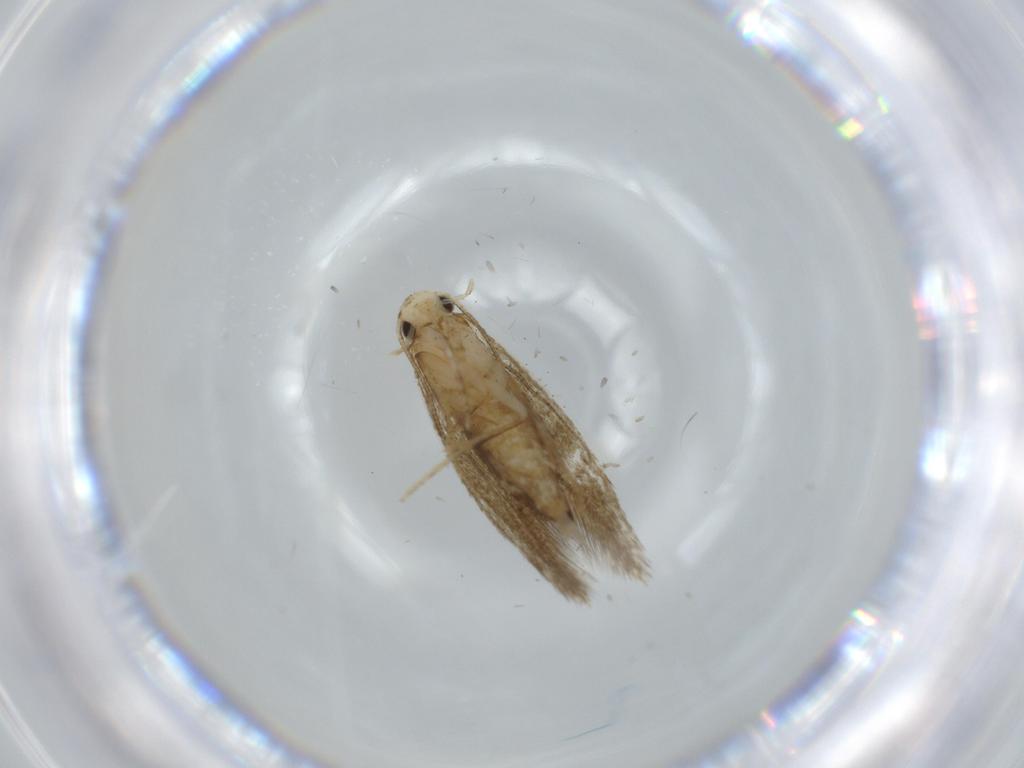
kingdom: Animalia
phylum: Arthropoda
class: Insecta
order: Lepidoptera
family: Tineidae
